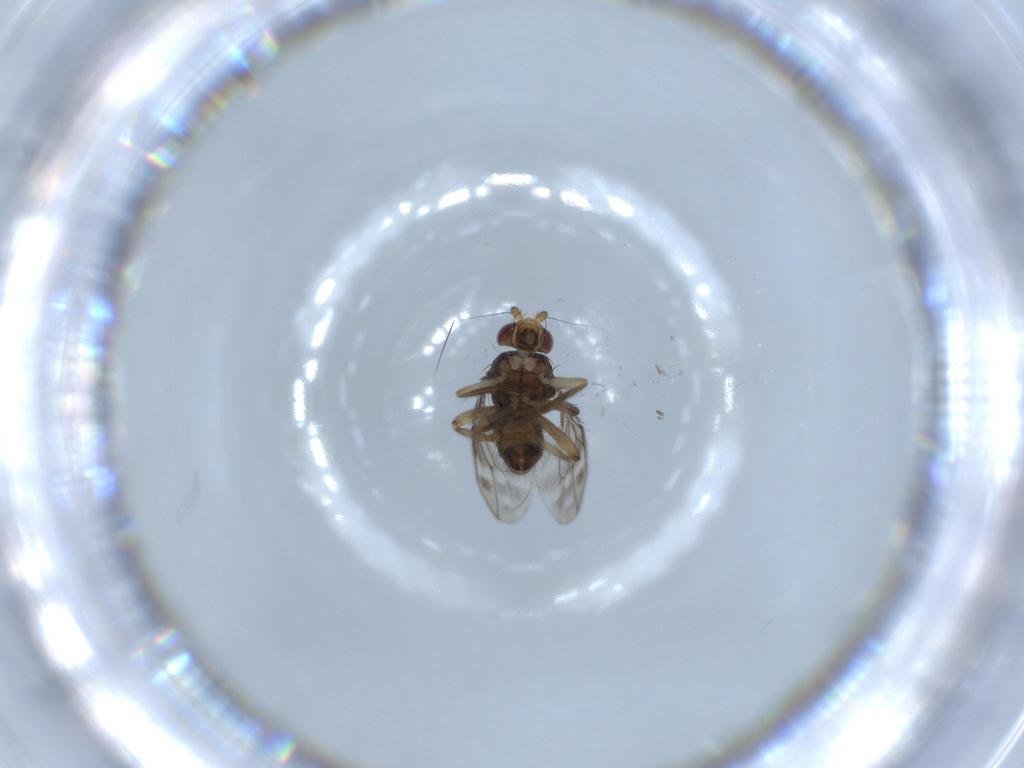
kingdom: Animalia
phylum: Arthropoda
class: Insecta
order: Diptera
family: Sphaeroceridae
